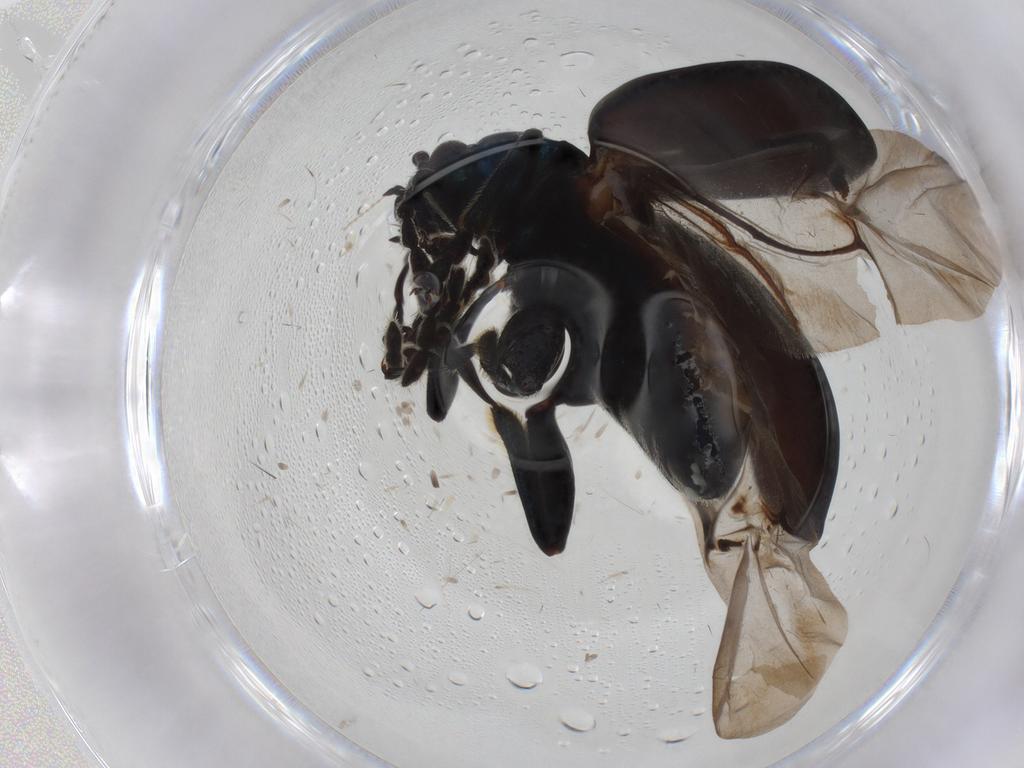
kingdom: Animalia
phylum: Arthropoda
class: Insecta
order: Coleoptera
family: Chrysomelidae
